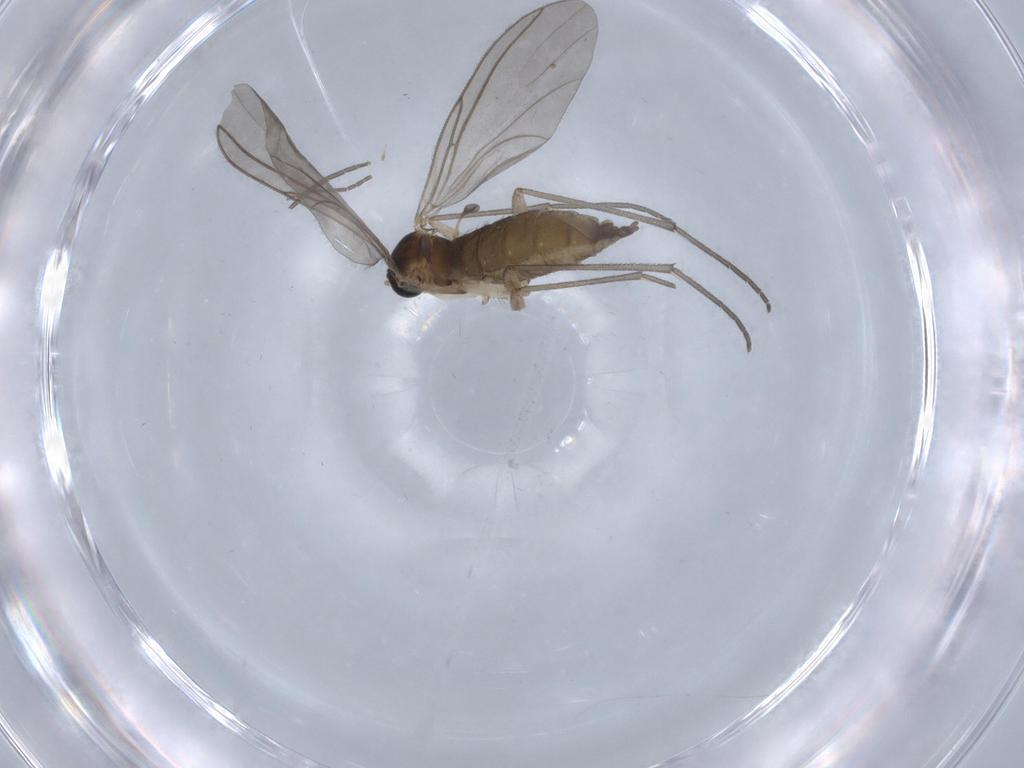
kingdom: Animalia
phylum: Arthropoda
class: Insecta
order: Diptera
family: Sciaridae
